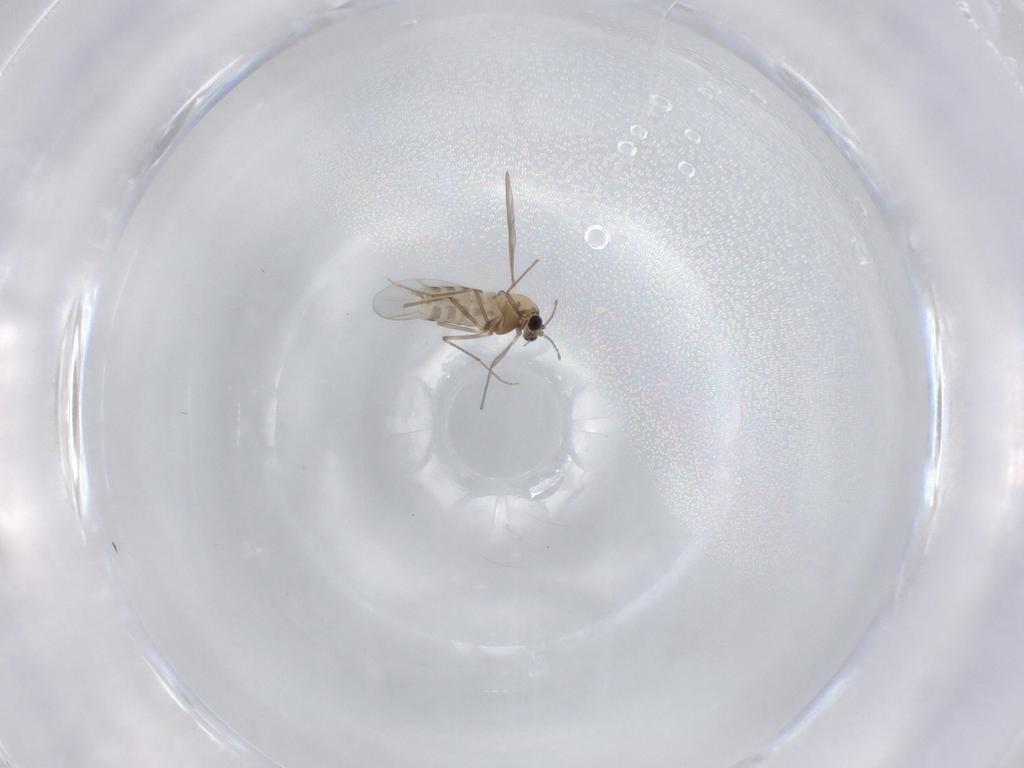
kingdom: Animalia
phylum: Arthropoda
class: Insecta
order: Diptera
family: Chironomidae
